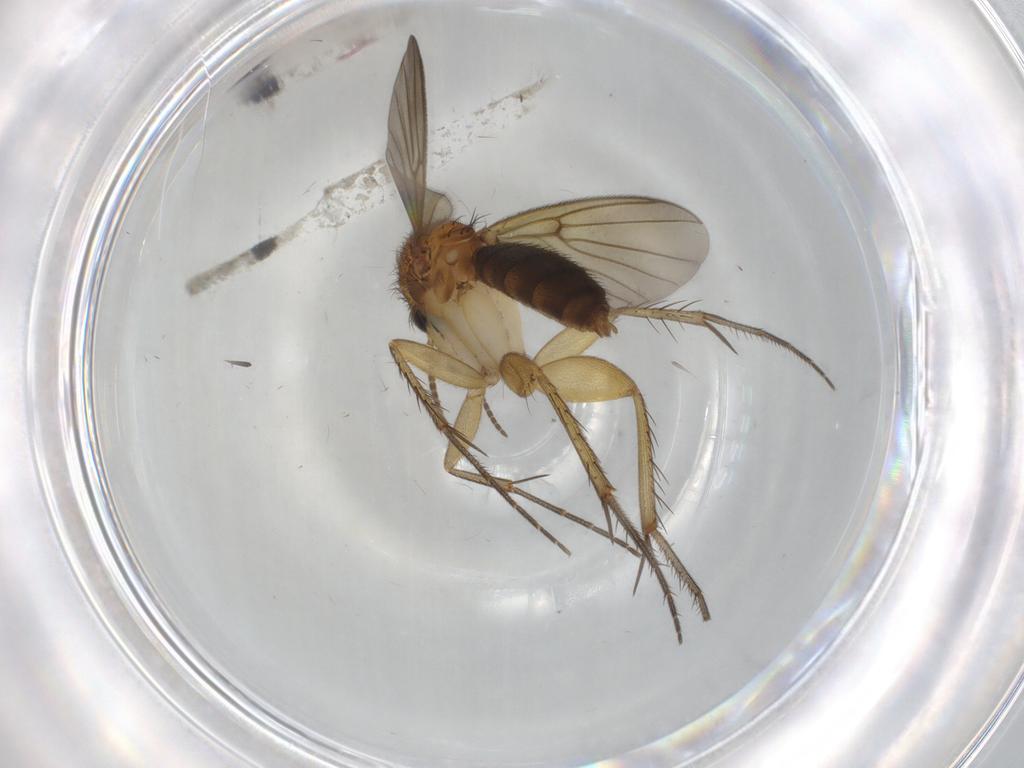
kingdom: Animalia
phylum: Arthropoda
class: Insecta
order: Diptera
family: Mycetophilidae
